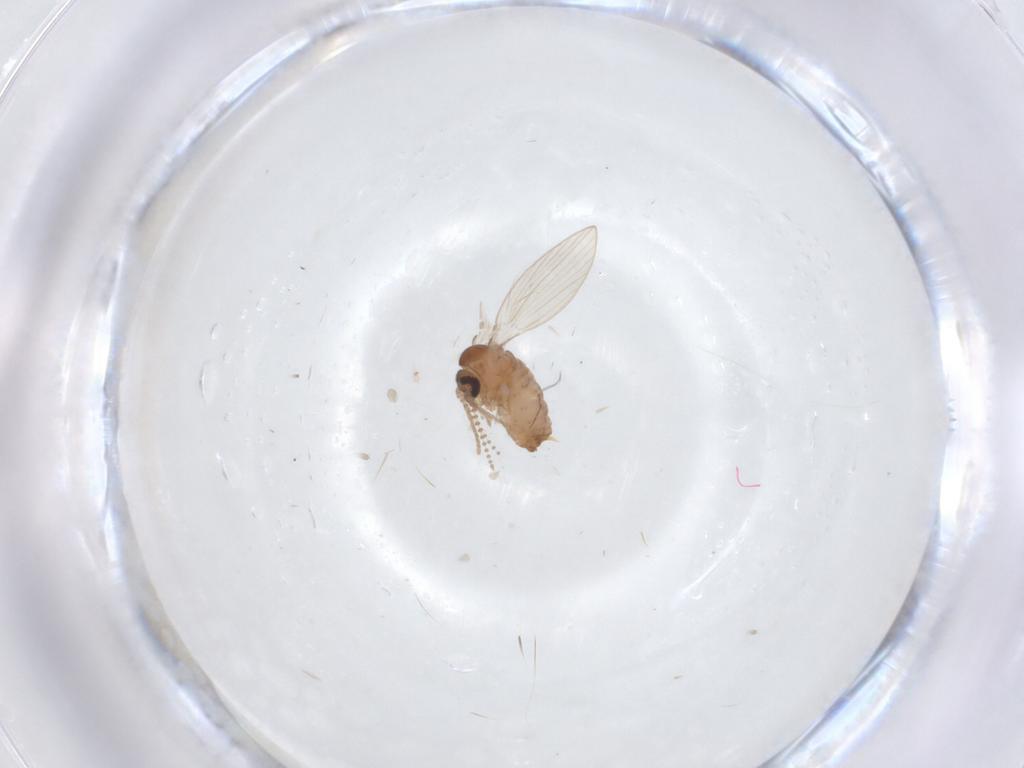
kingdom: Animalia
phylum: Arthropoda
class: Insecta
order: Diptera
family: Psychodidae
